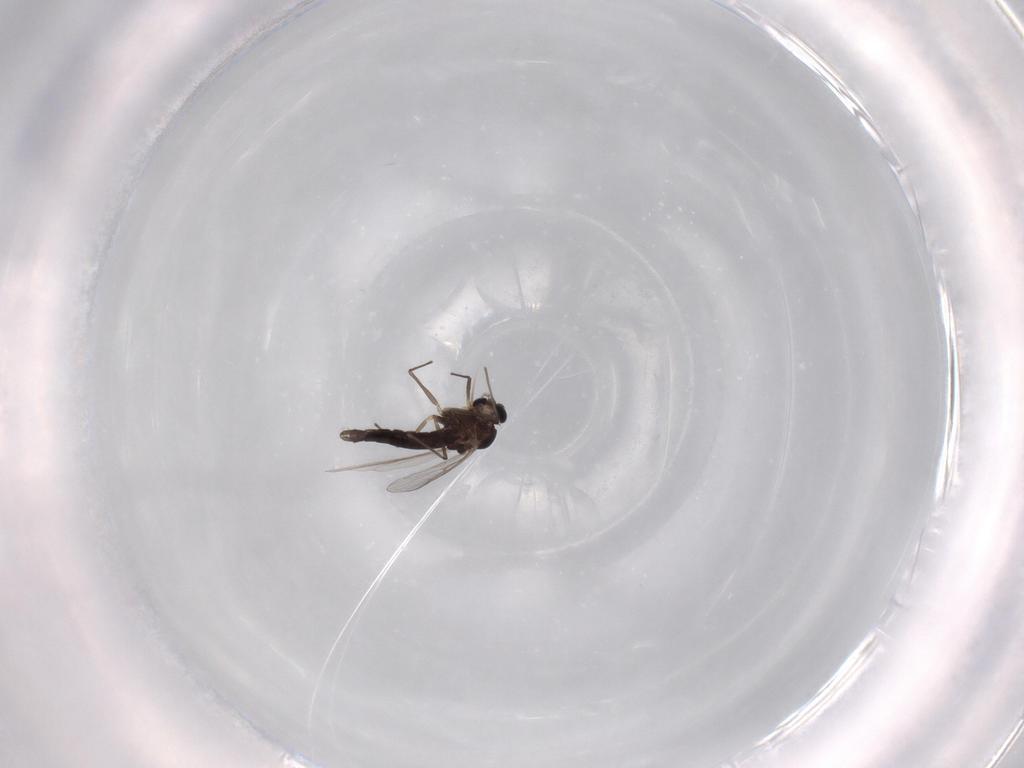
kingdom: Animalia
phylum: Arthropoda
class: Insecta
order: Diptera
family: Chironomidae
